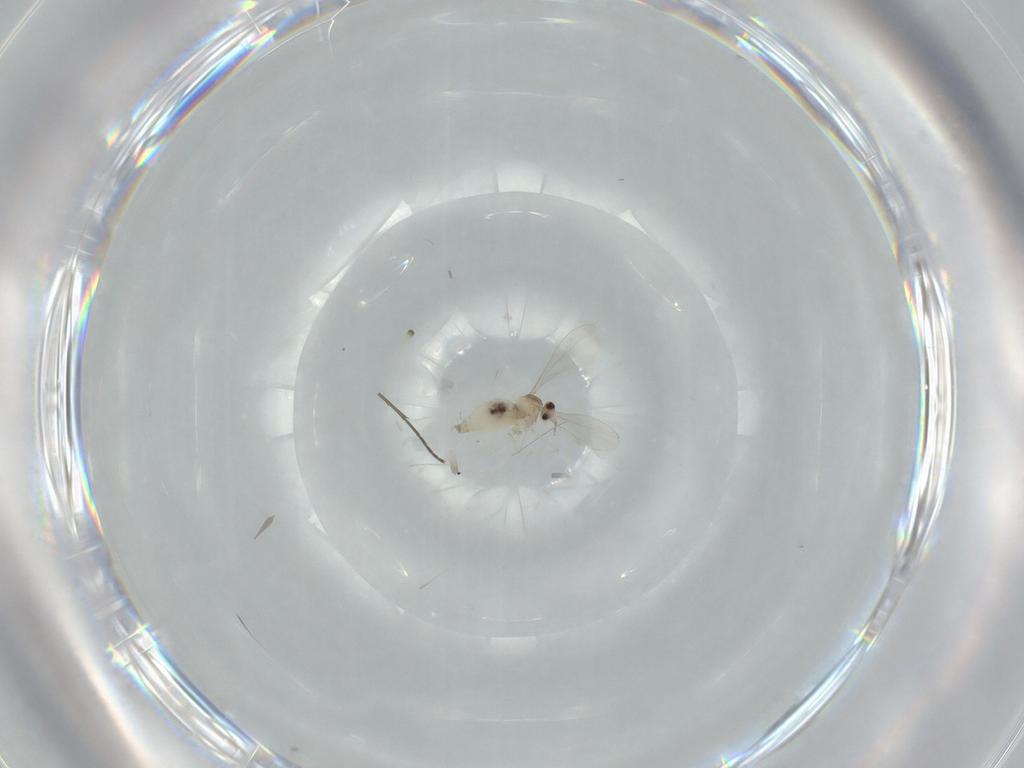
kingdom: Animalia
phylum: Arthropoda
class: Insecta
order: Diptera
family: Cecidomyiidae
